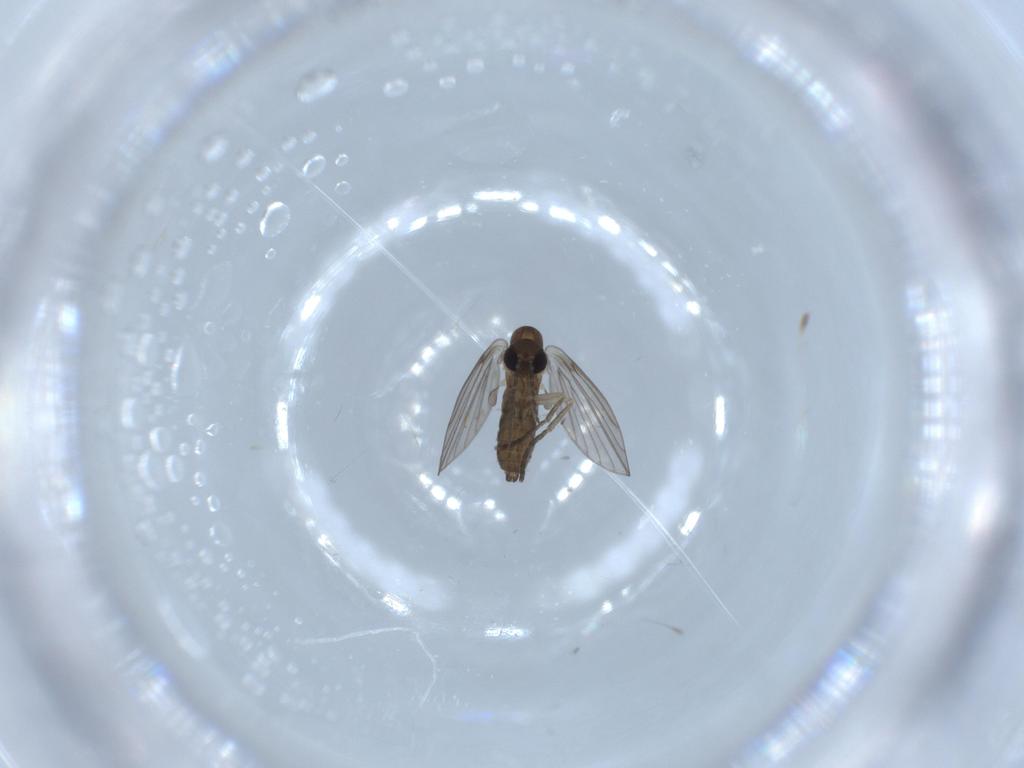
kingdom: Animalia
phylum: Arthropoda
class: Insecta
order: Diptera
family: Psychodidae
